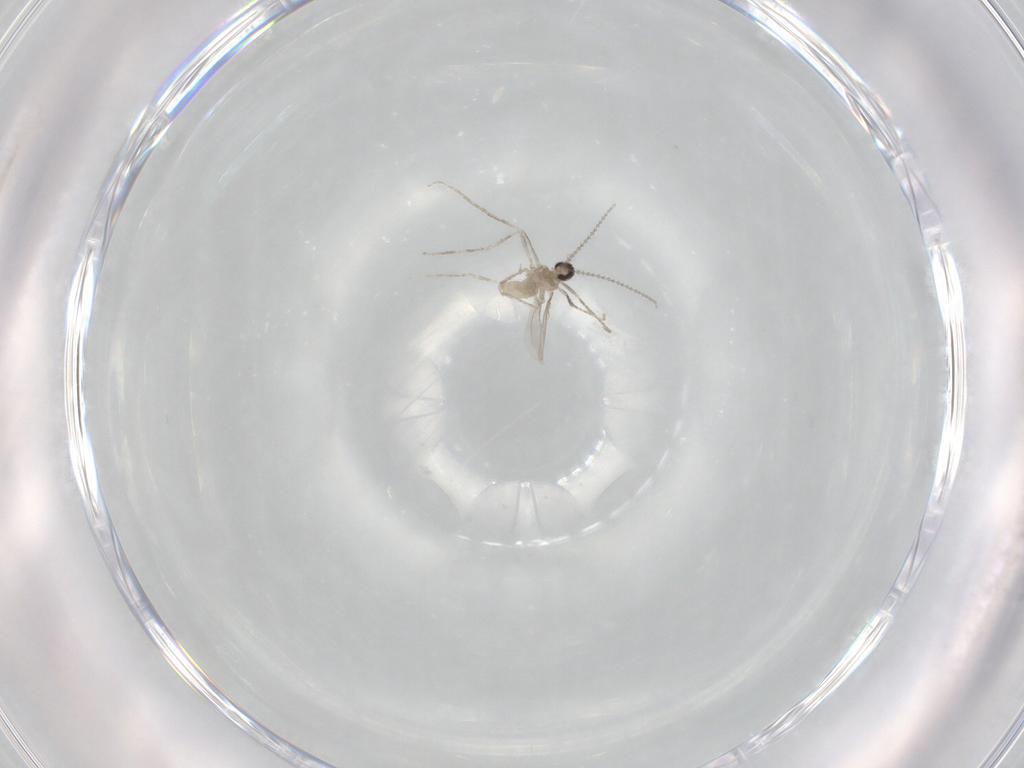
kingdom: Animalia
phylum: Arthropoda
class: Insecta
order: Diptera
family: Cecidomyiidae
